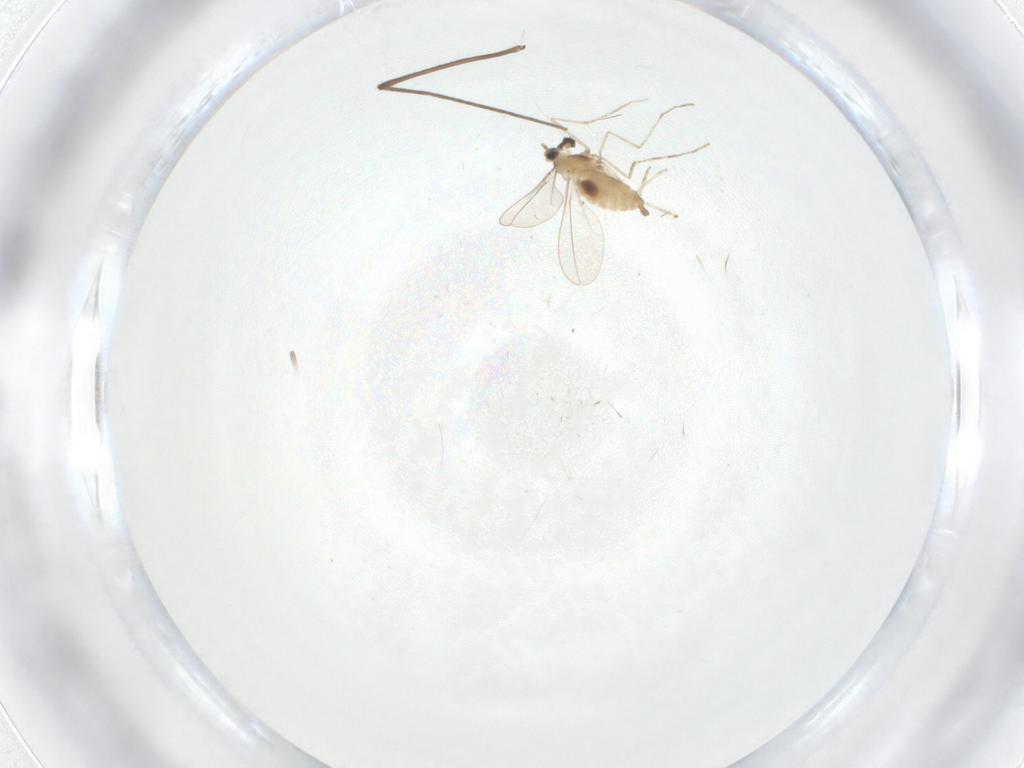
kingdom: Animalia
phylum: Arthropoda
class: Insecta
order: Diptera
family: Cecidomyiidae
